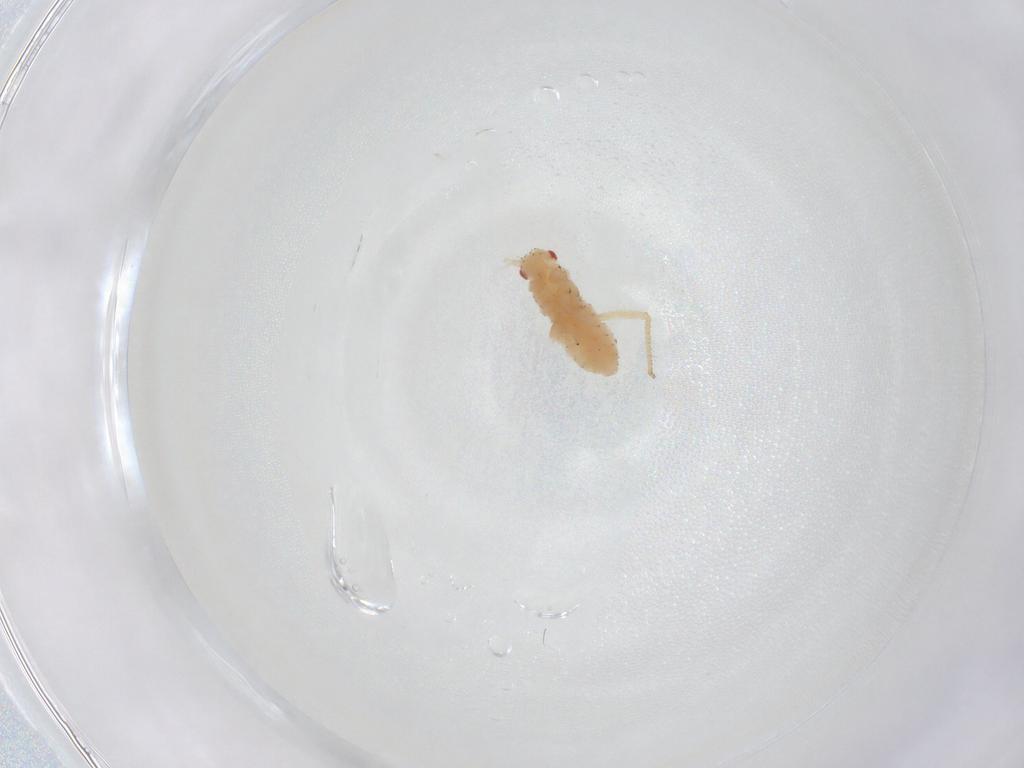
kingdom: Animalia
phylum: Arthropoda
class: Insecta
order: Hemiptera
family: Aphididae
